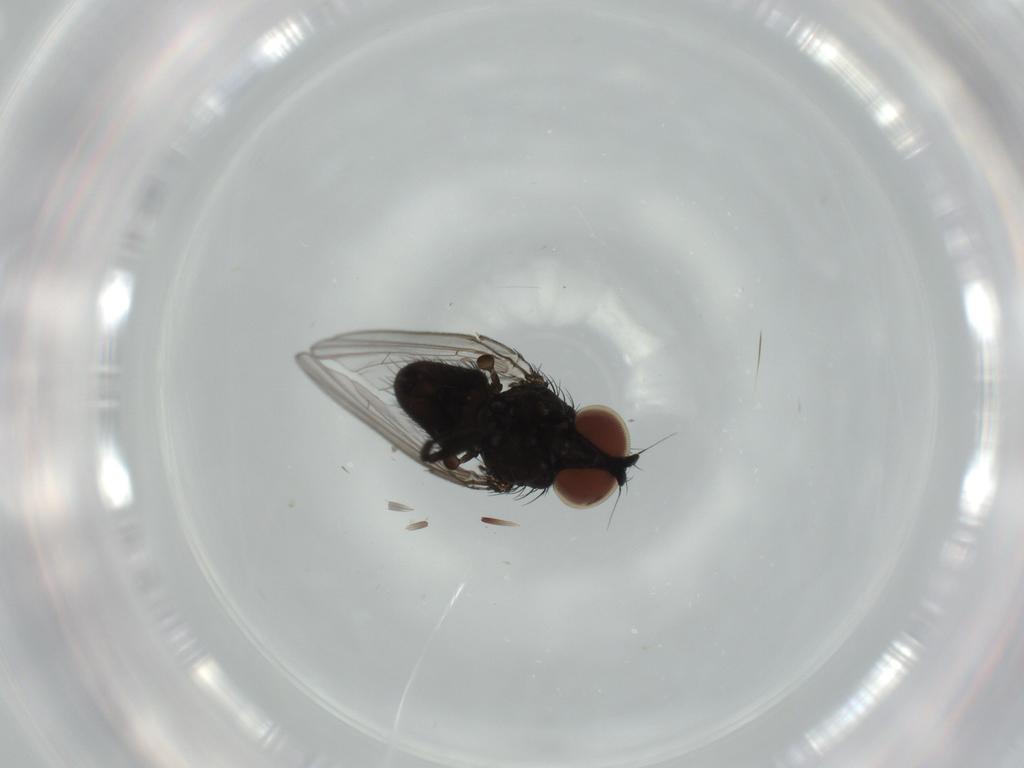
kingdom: Animalia
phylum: Arthropoda
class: Insecta
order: Diptera
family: Milichiidae
